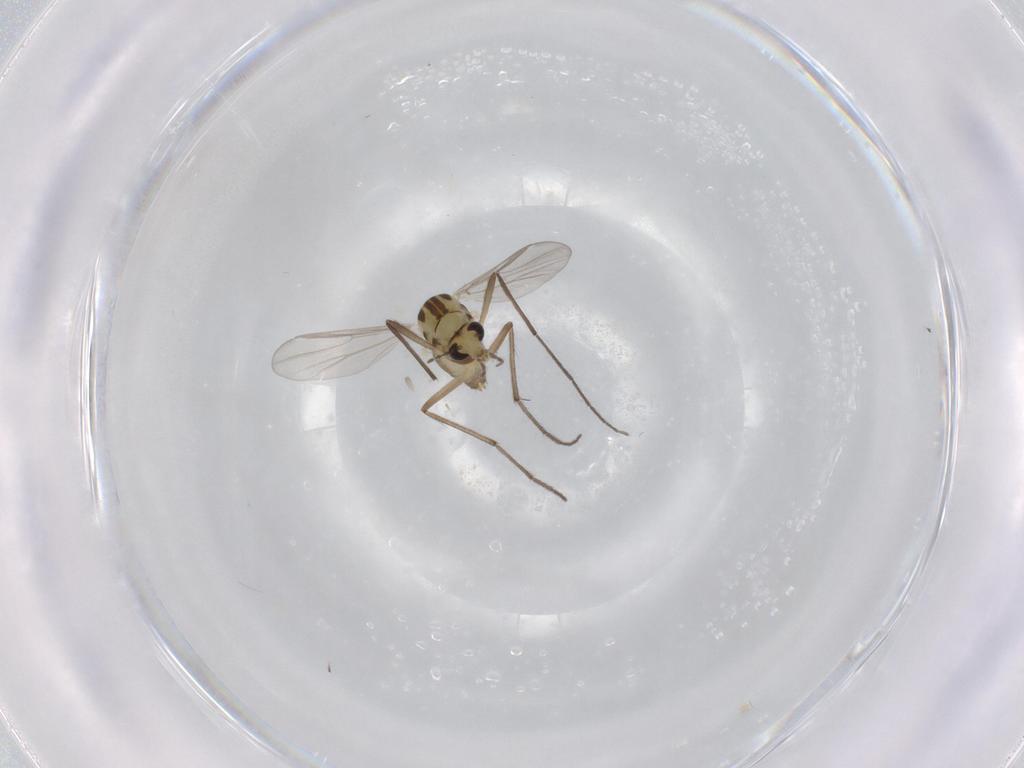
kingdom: Animalia
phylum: Arthropoda
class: Insecta
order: Diptera
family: Chironomidae
